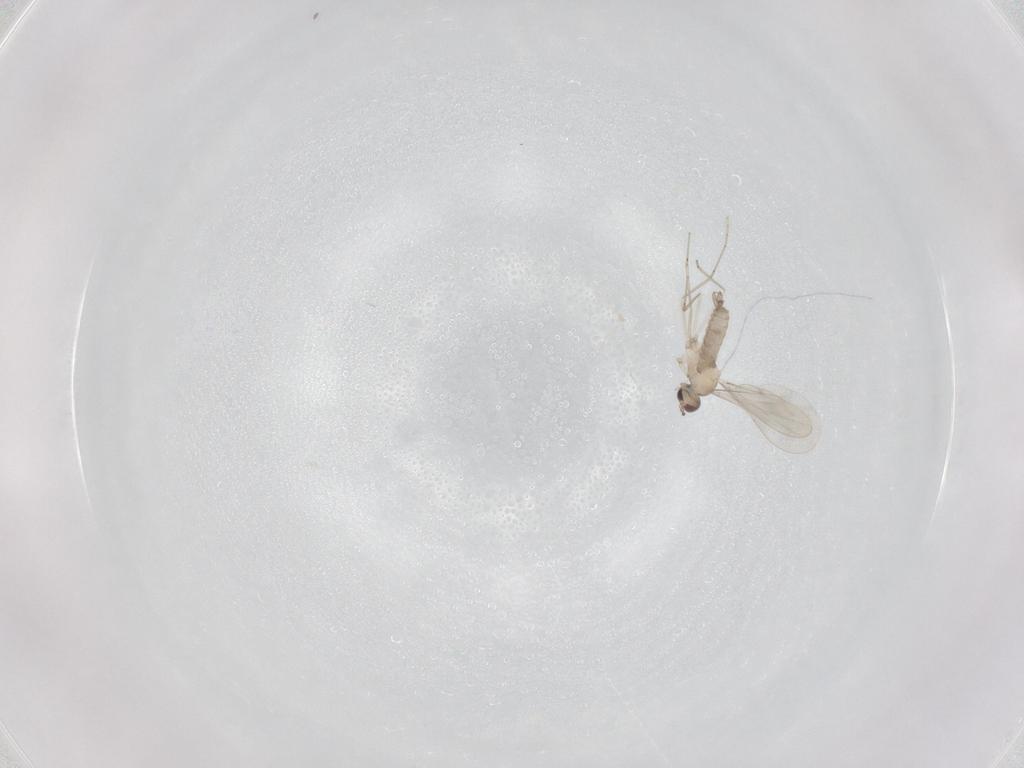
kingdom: Animalia
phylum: Arthropoda
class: Insecta
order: Diptera
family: Cecidomyiidae
